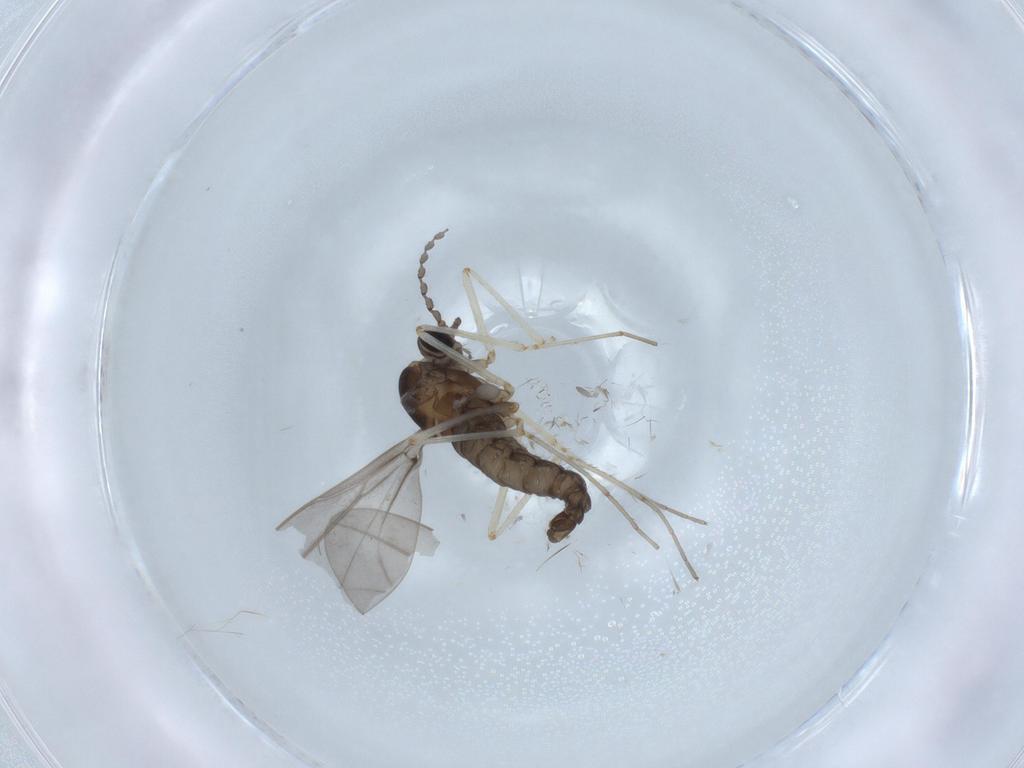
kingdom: Animalia
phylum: Arthropoda
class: Insecta
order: Diptera
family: Cecidomyiidae
